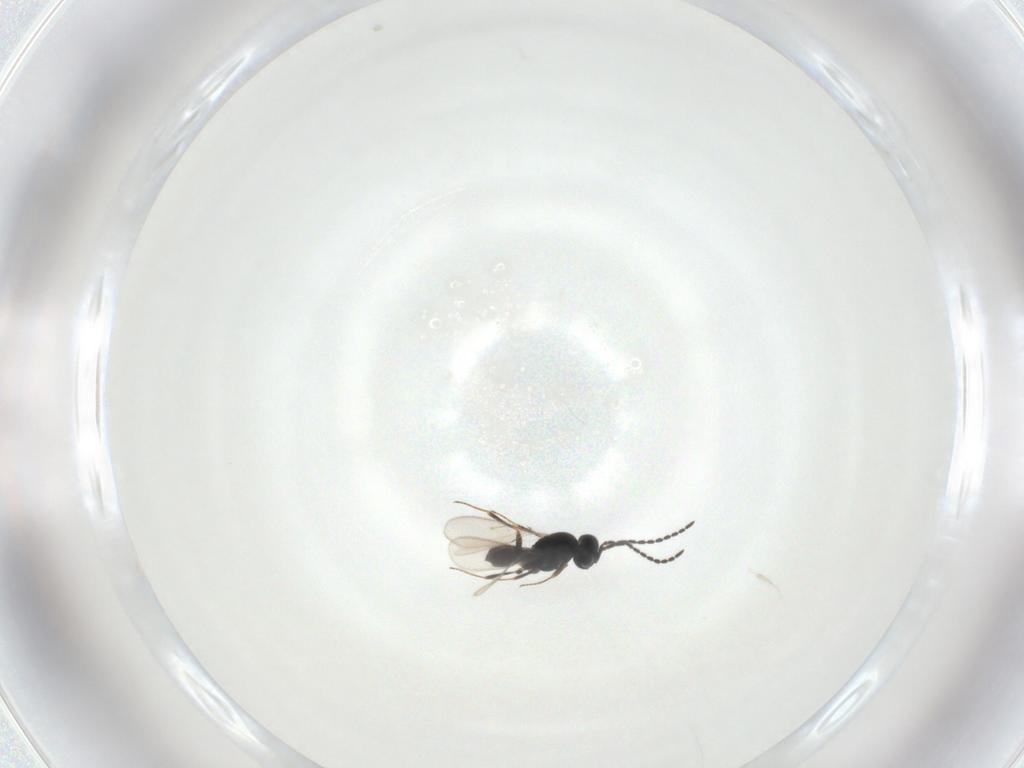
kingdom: Animalia
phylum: Arthropoda
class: Insecta
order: Hymenoptera
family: Scelionidae
